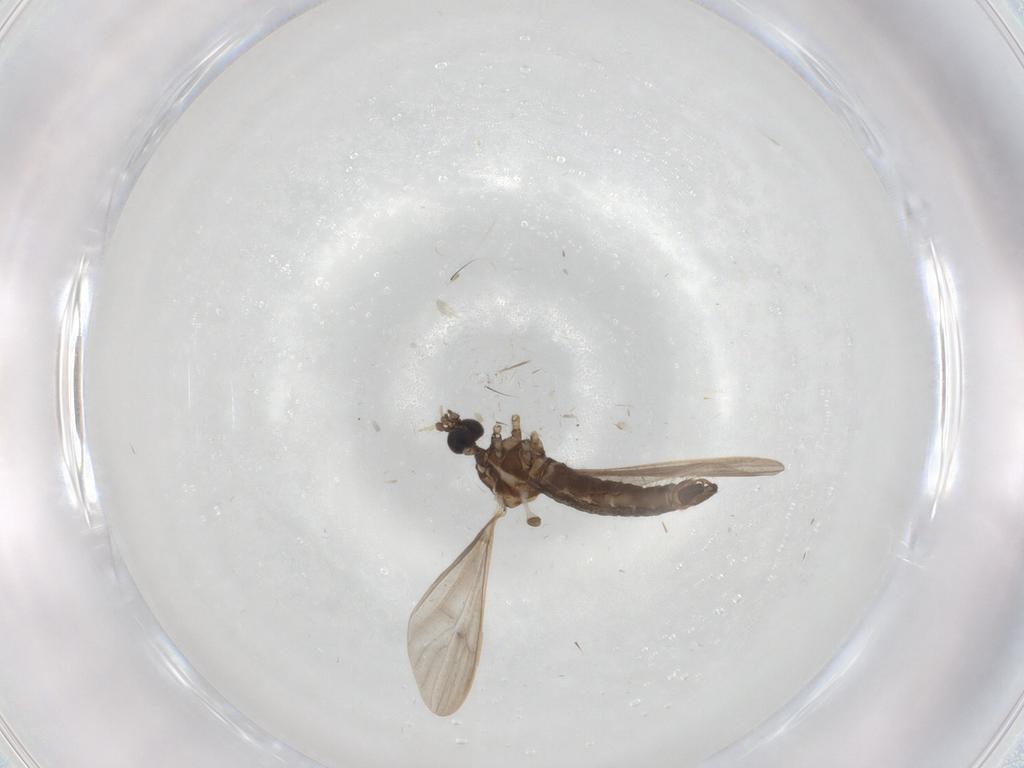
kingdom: Animalia
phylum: Arthropoda
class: Insecta
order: Diptera
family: Limoniidae
